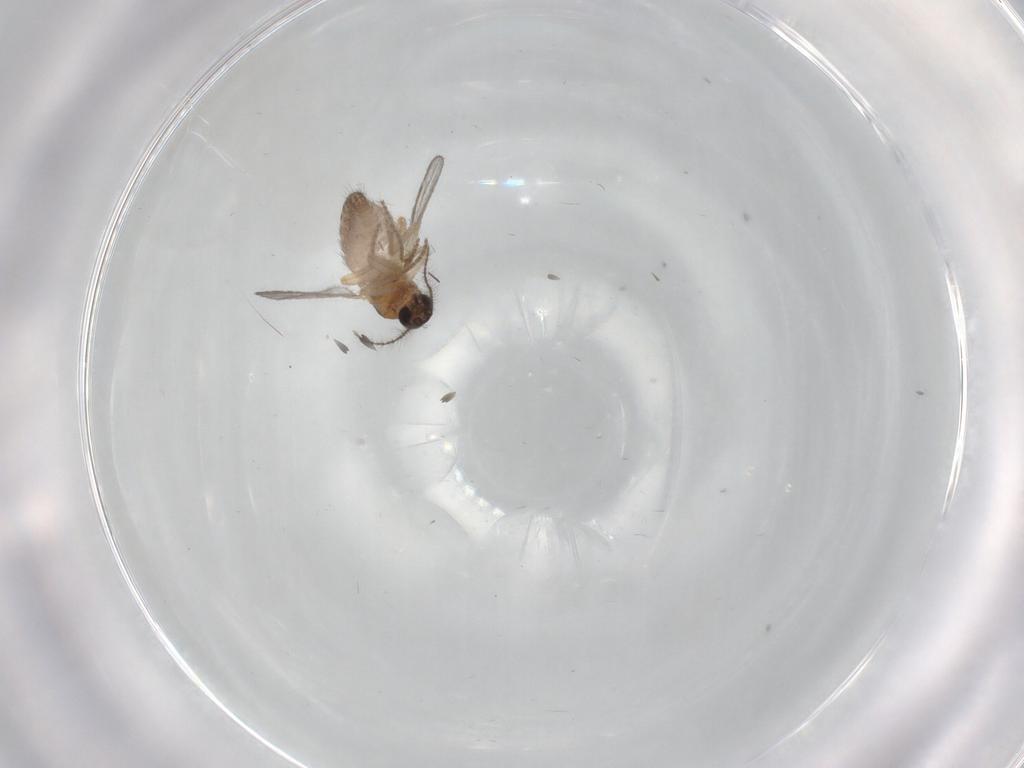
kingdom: Animalia
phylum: Arthropoda
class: Insecta
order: Diptera
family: Ceratopogonidae
